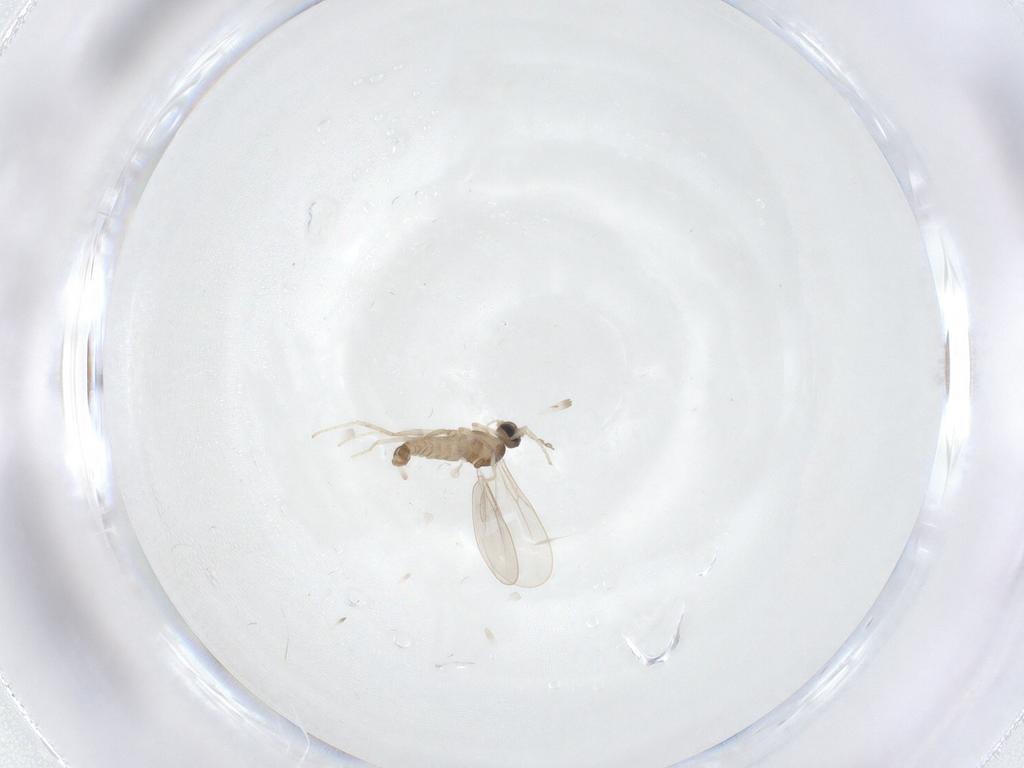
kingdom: Animalia
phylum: Arthropoda
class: Insecta
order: Diptera
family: Cecidomyiidae
